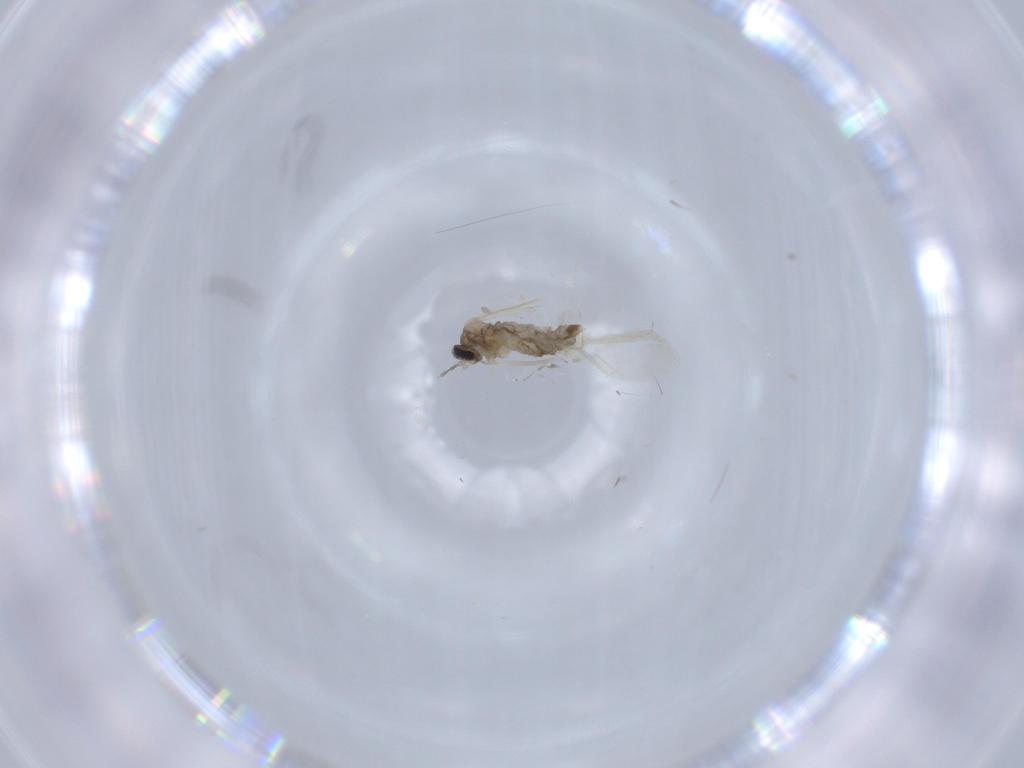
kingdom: Animalia
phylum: Arthropoda
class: Insecta
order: Diptera
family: Cecidomyiidae
